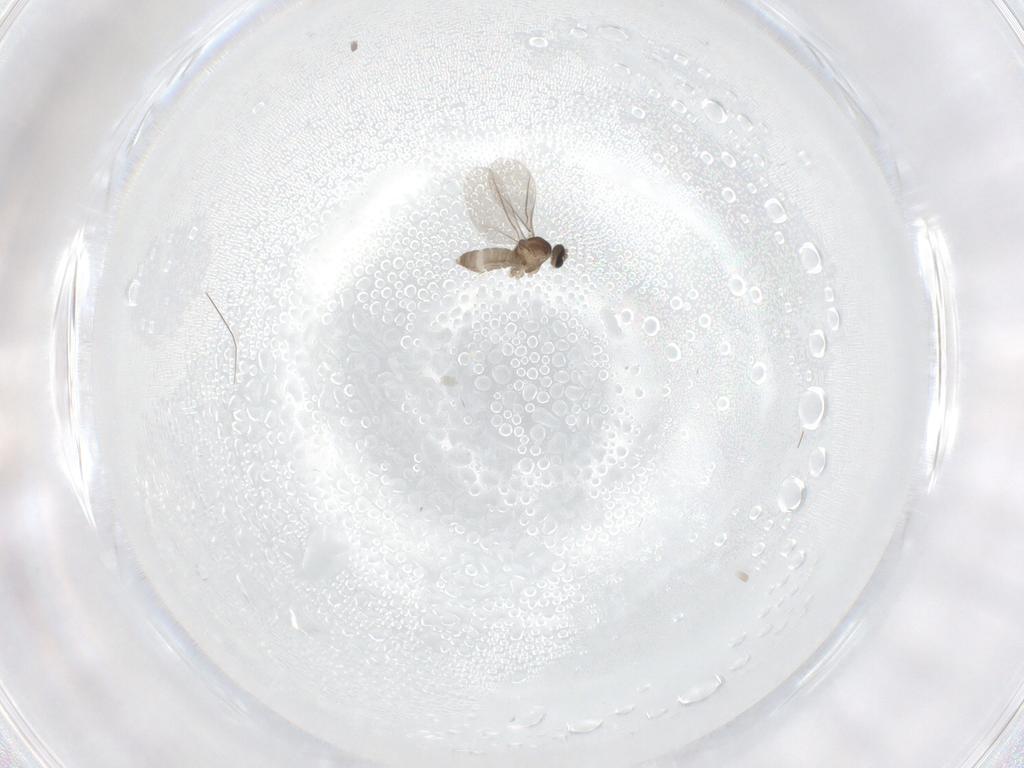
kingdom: Animalia
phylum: Arthropoda
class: Insecta
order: Diptera
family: Cecidomyiidae
